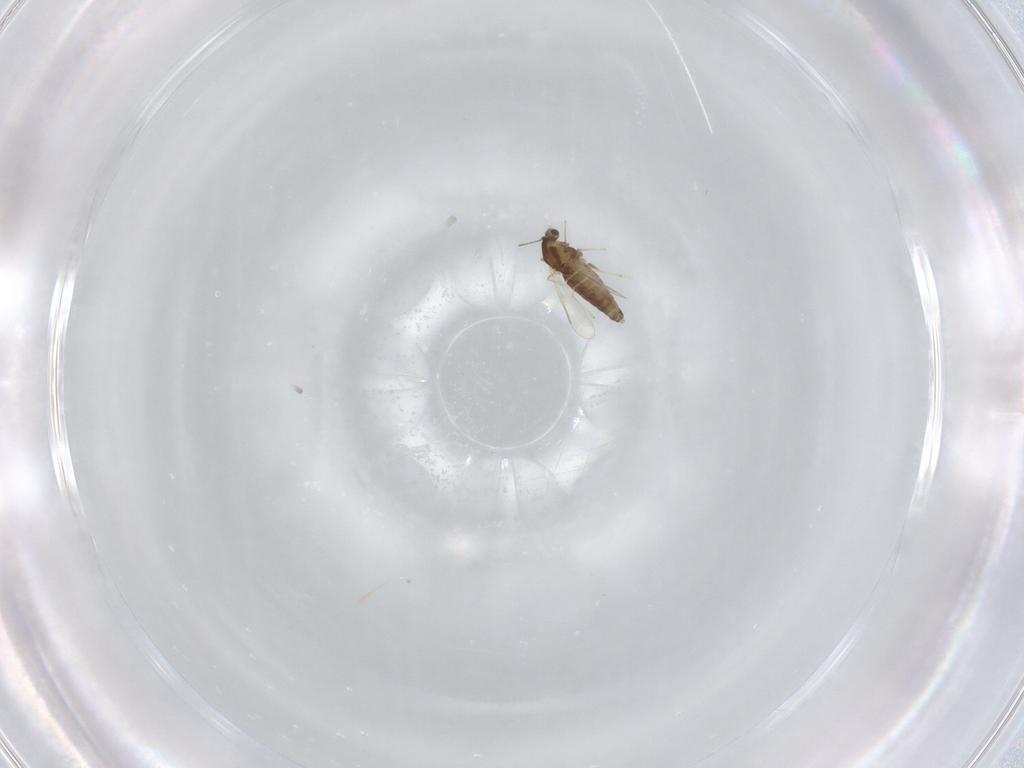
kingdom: Animalia
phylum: Arthropoda
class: Insecta
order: Diptera
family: Chironomidae
